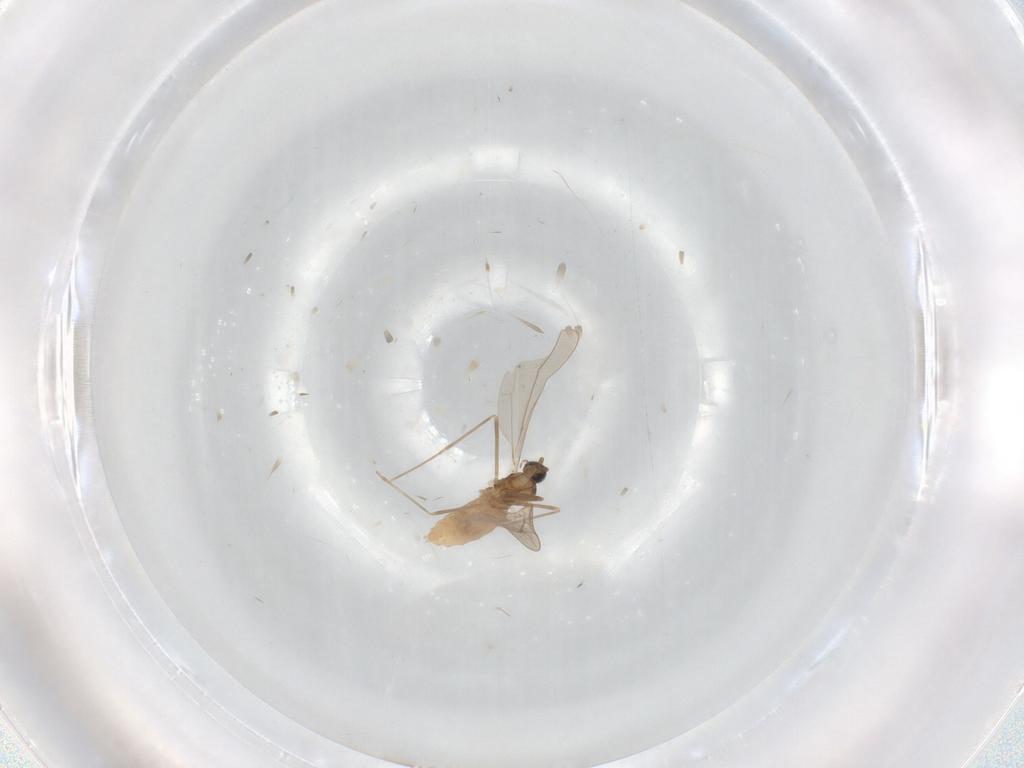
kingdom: Animalia
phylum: Arthropoda
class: Insecta
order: Diptera
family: Cecidomyiidae
